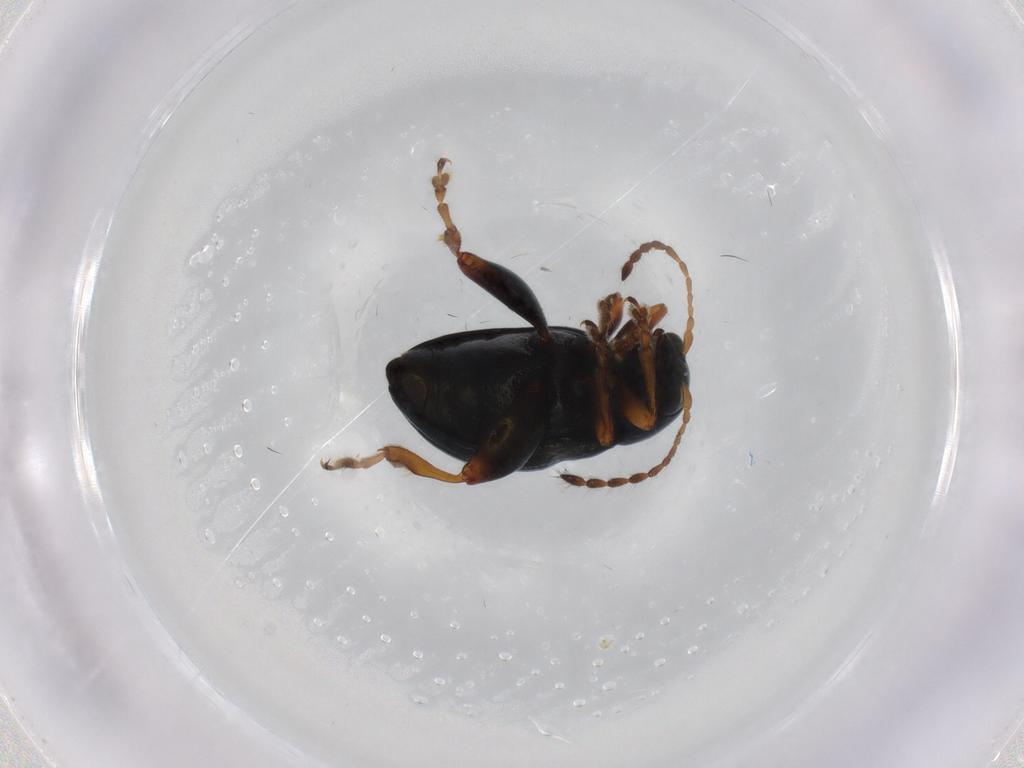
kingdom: Animalia
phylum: Arthropoda
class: Insecta
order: Coleoptera
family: Chrysomelidae
